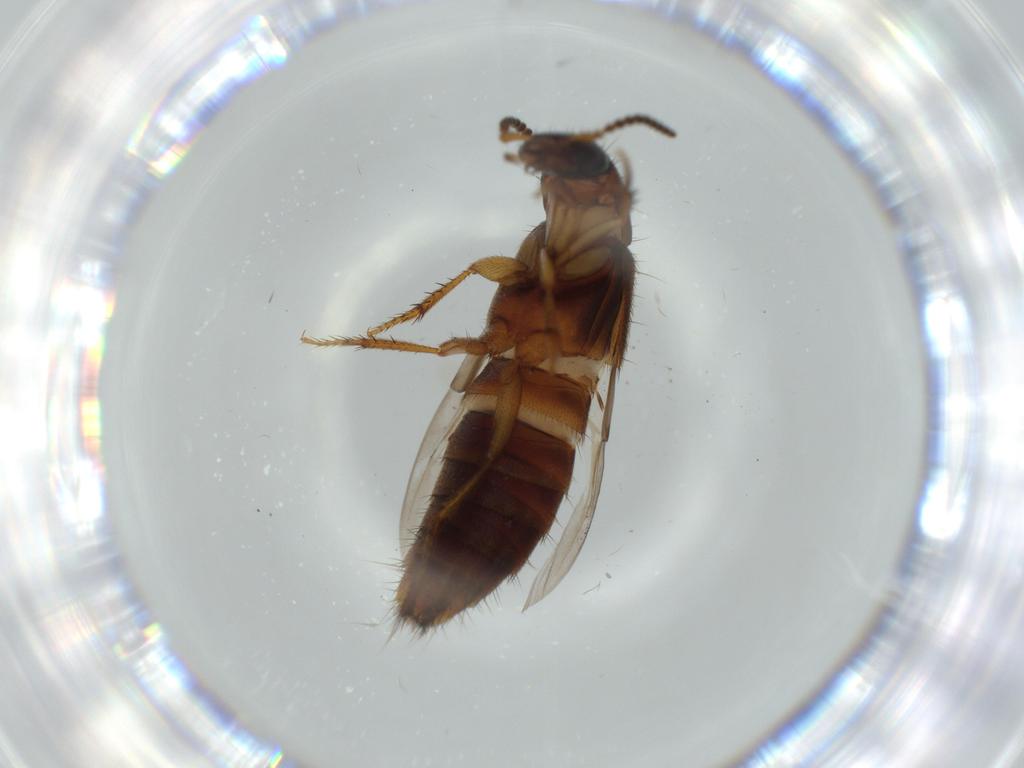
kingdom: Animalia
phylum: Arthropoda
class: Insecta
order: Coleoptera
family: Staphylinidae
